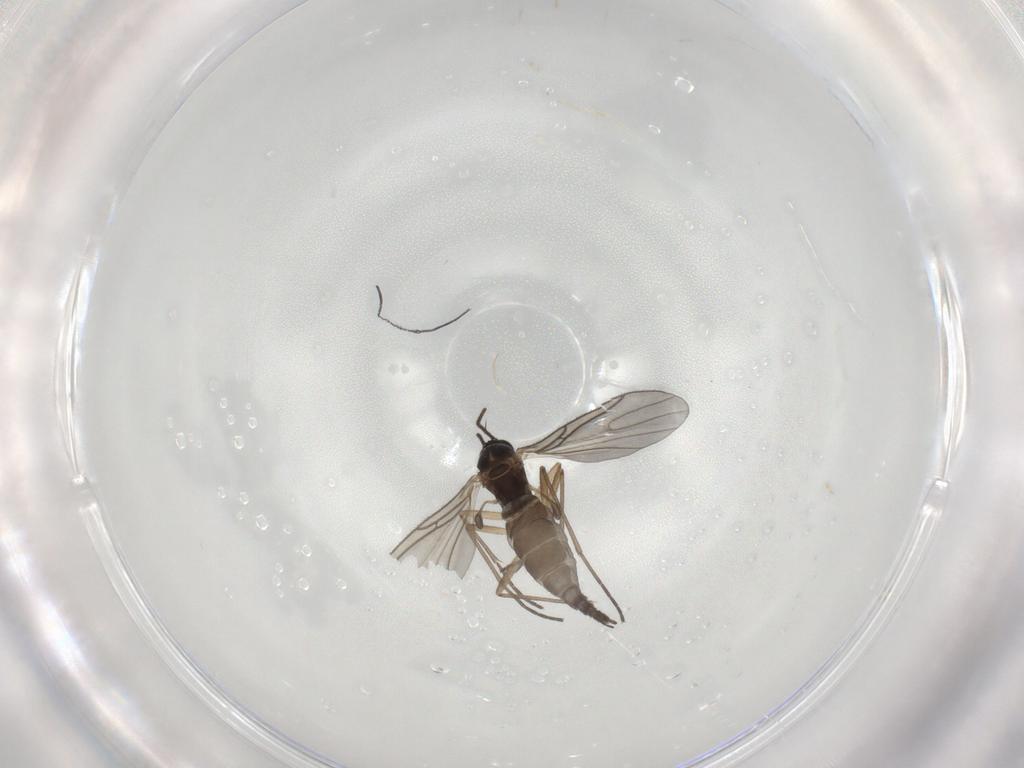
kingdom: Animalia
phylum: Arthropoda
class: Insecta
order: Diptera
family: Sciaridae
